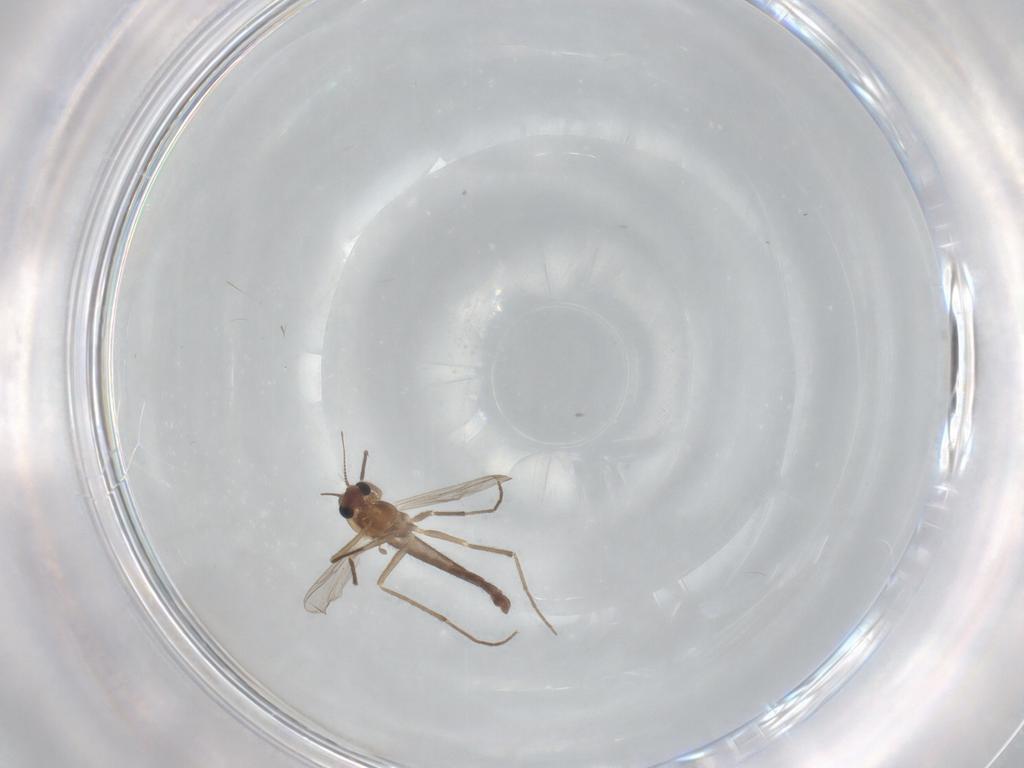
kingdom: Animalia
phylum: Arthropoda
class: Insecta
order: Diptera
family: Chironomidae
